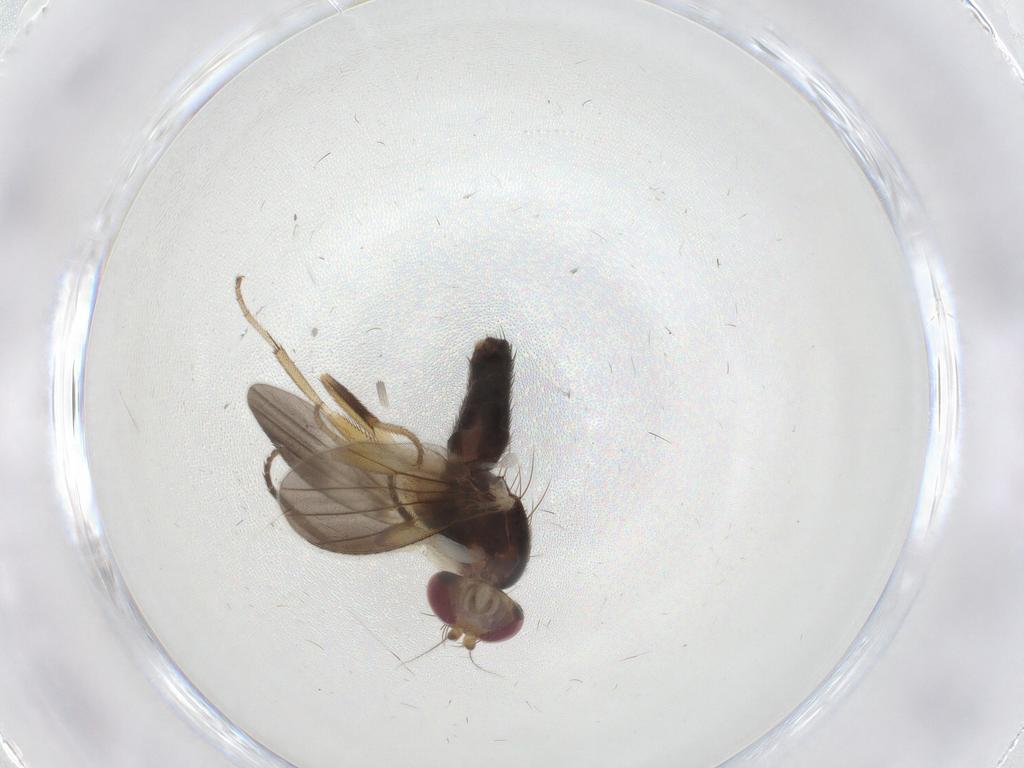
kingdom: Animalia
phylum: Arthropoda
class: Insecta
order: Diptera
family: Clusiidae
